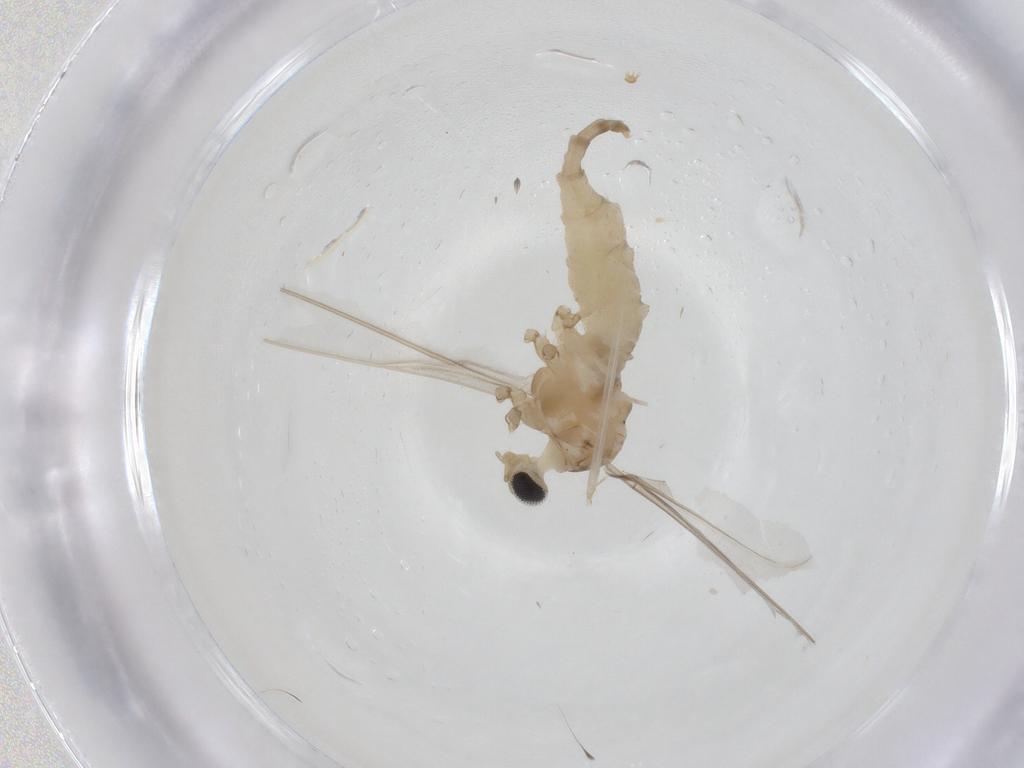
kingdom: Animalia
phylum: Arthropoda
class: Insecta
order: Diptera
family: Cecidomyiidae
